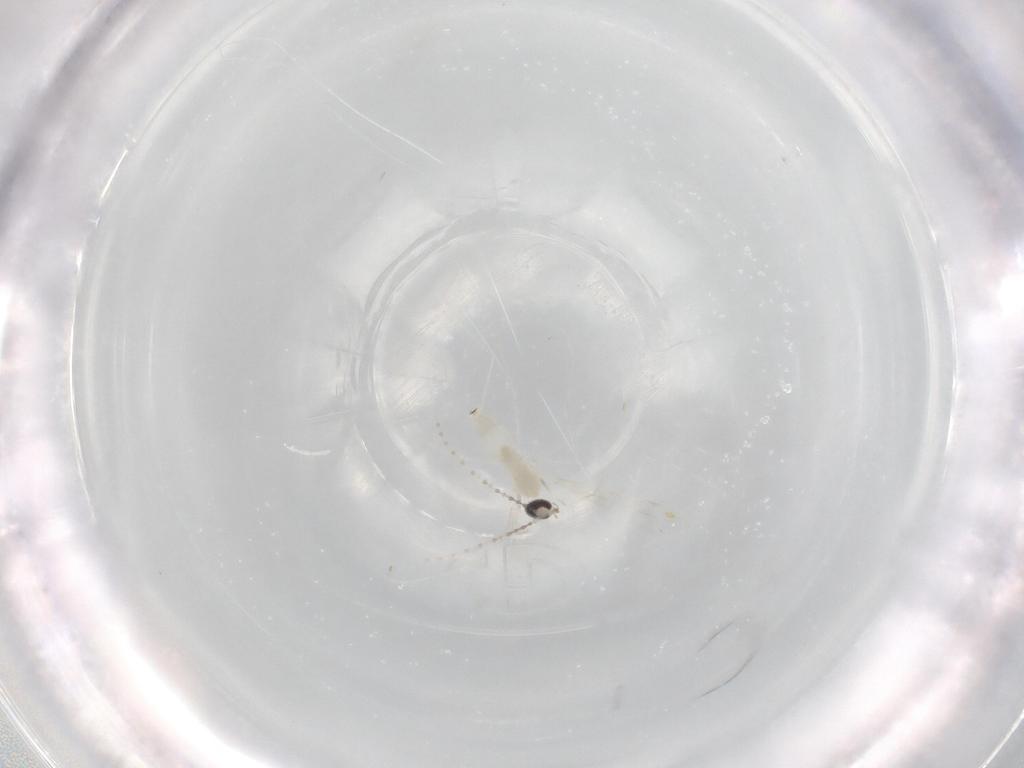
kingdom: Animalia
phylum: Arthropoda
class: Insecta
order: Diptera
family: Cecidomyiidae
